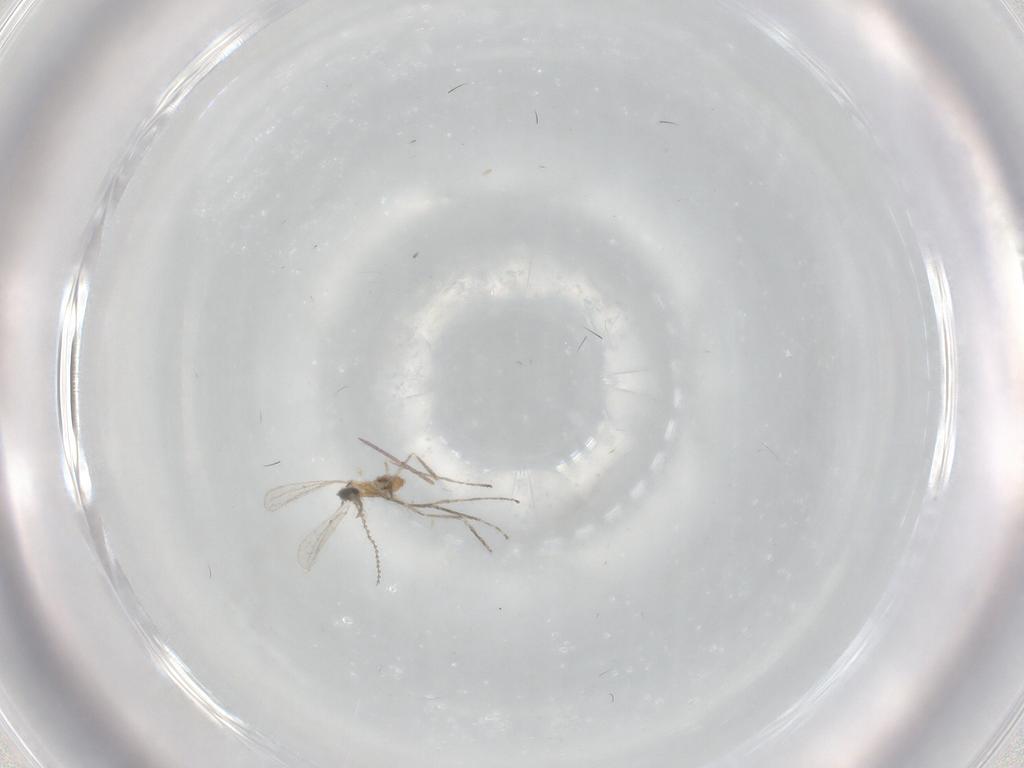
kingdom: Animalia
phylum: Arthropoda
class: Insecta
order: Diptera
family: Cecidomyiidae
